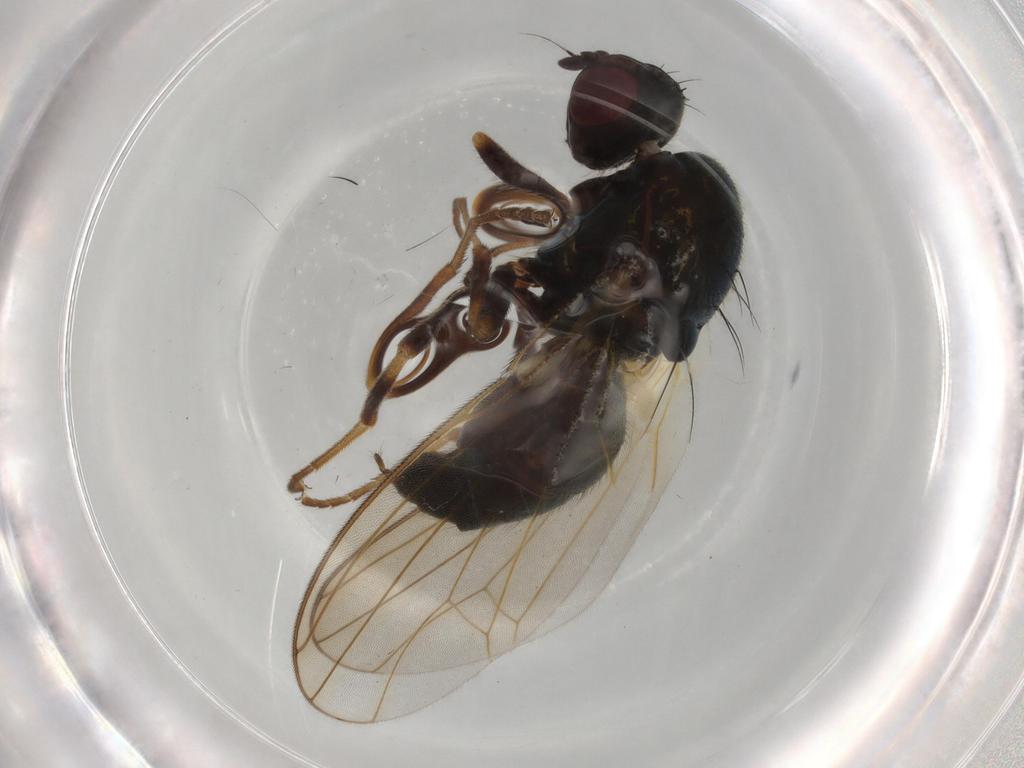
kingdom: Animalia
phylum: Arthropoda
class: Insecta
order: Diptera
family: Psilidae
